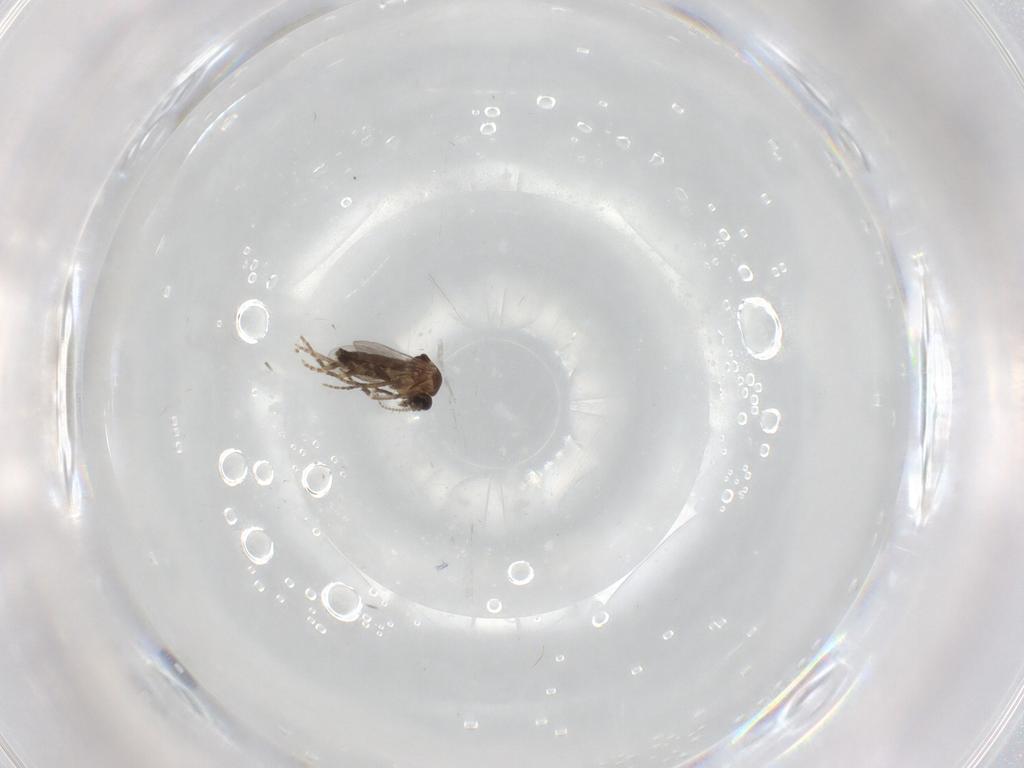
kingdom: Animalia
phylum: Arthropoda
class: Insecta
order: Diptera
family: Ceratopogonidae
